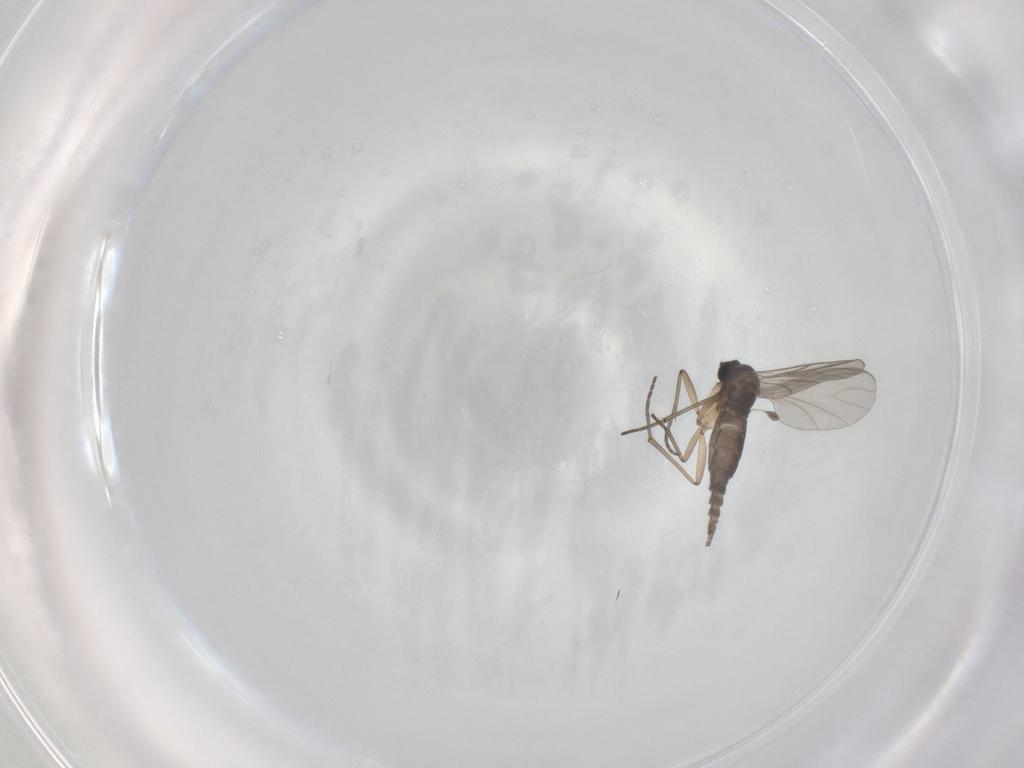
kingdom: Animalia
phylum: Arthropoda
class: Insecta
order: Diptera
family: Sciaridae
